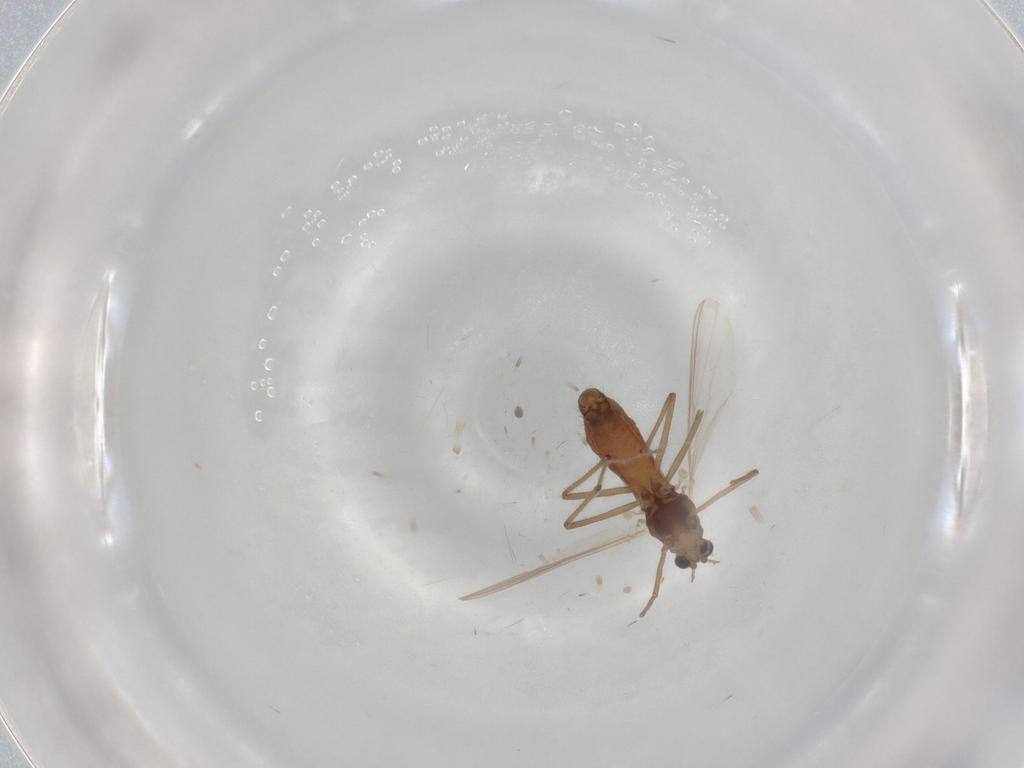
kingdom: Animalia
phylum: Arthropoda
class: Insecta
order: Diptera
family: Chironomidae
